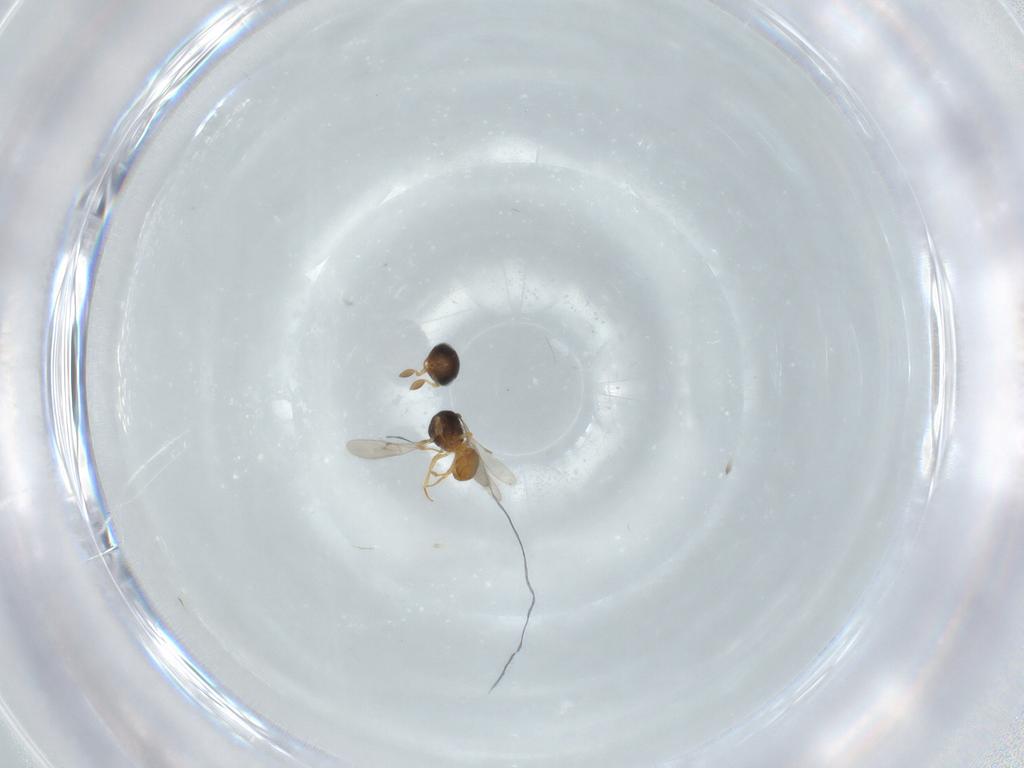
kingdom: Animalia
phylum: Arthropoda
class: Insecta
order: Hymenoptera
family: Scelionidae
